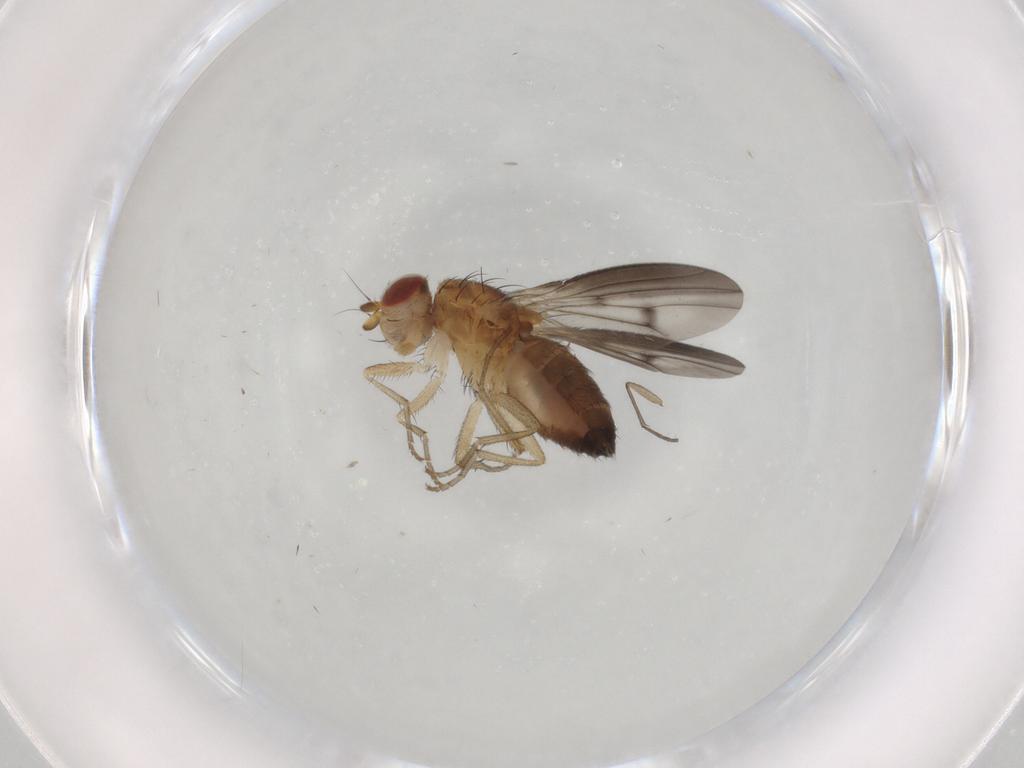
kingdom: Animalia
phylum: Arthropoda
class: Insecta
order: Diptera
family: Heleomyzidae
